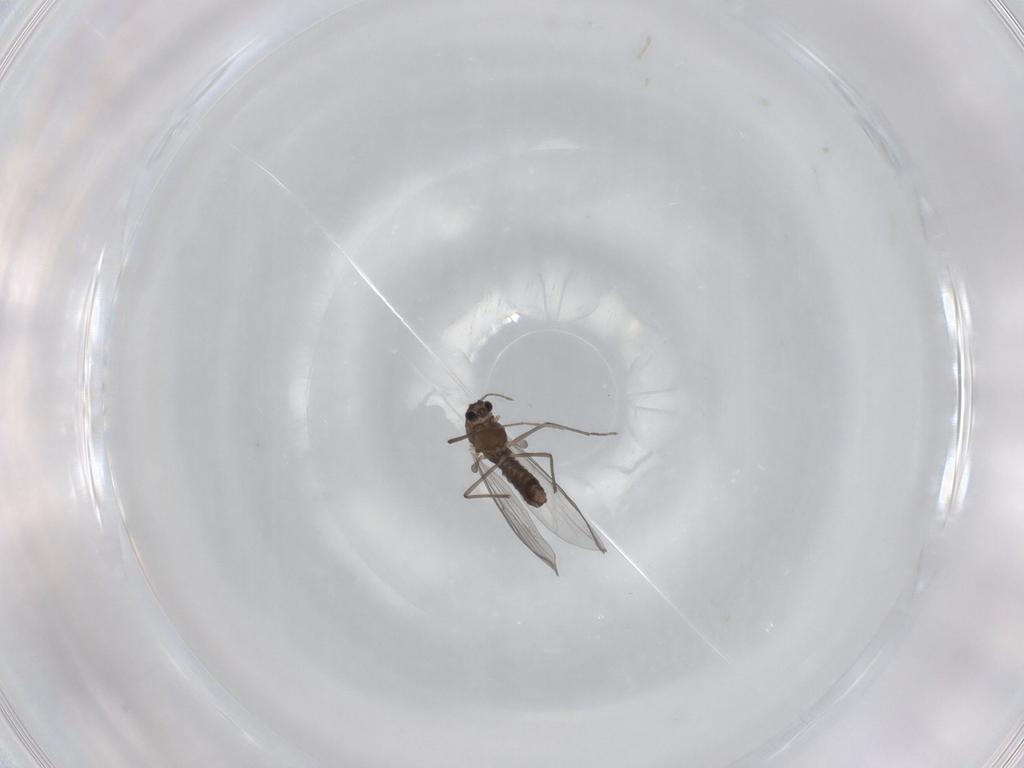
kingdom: Animalia
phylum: Arthropoda
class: Insecta
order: Diptera
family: Chironomidae
